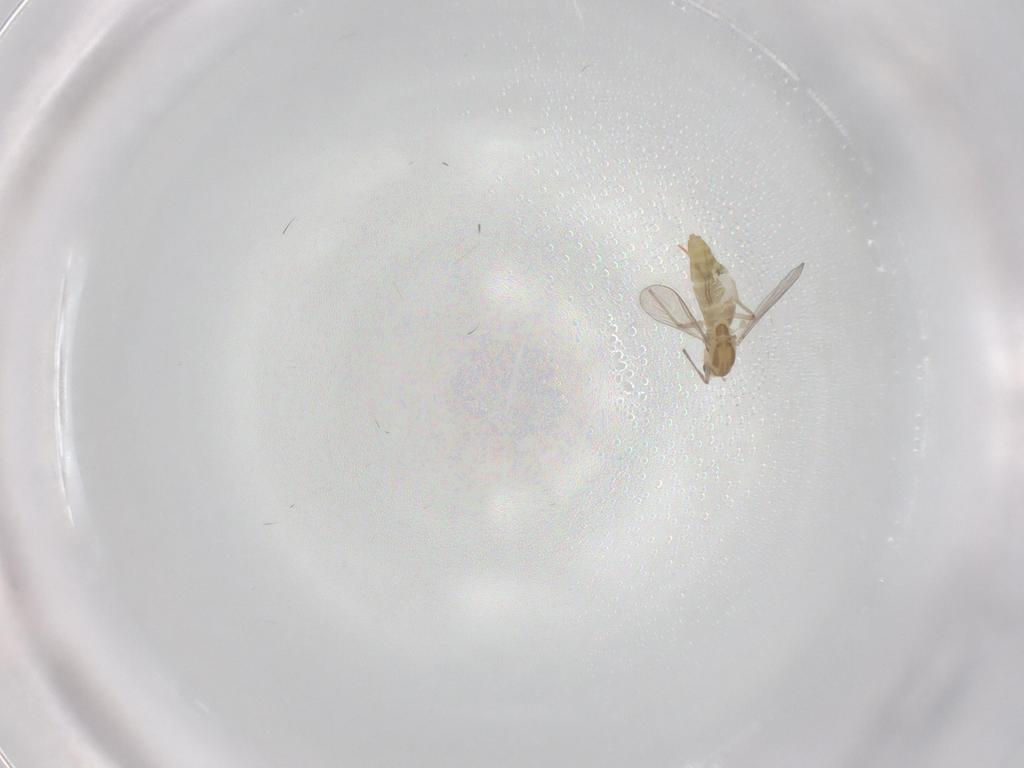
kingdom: Animalia
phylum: Arthropoda
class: Insecta
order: Diptera
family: Chironomidae
